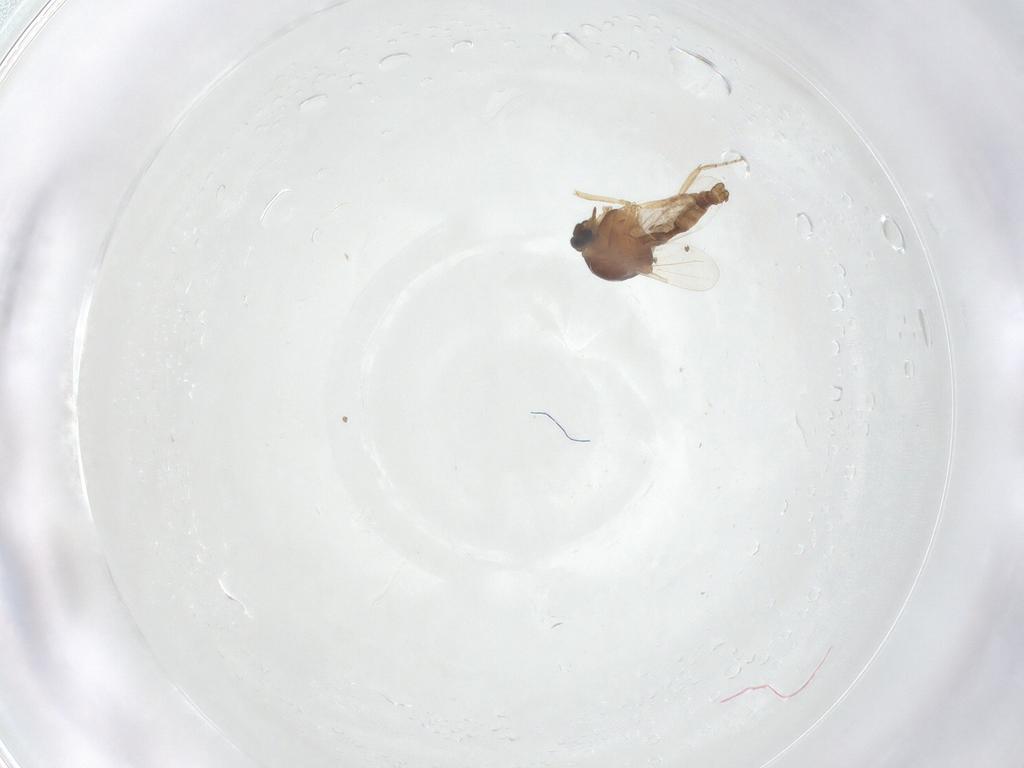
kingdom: Animalia
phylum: Arthropoda
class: Insecta
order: Diptera
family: Ceratopogonidae
